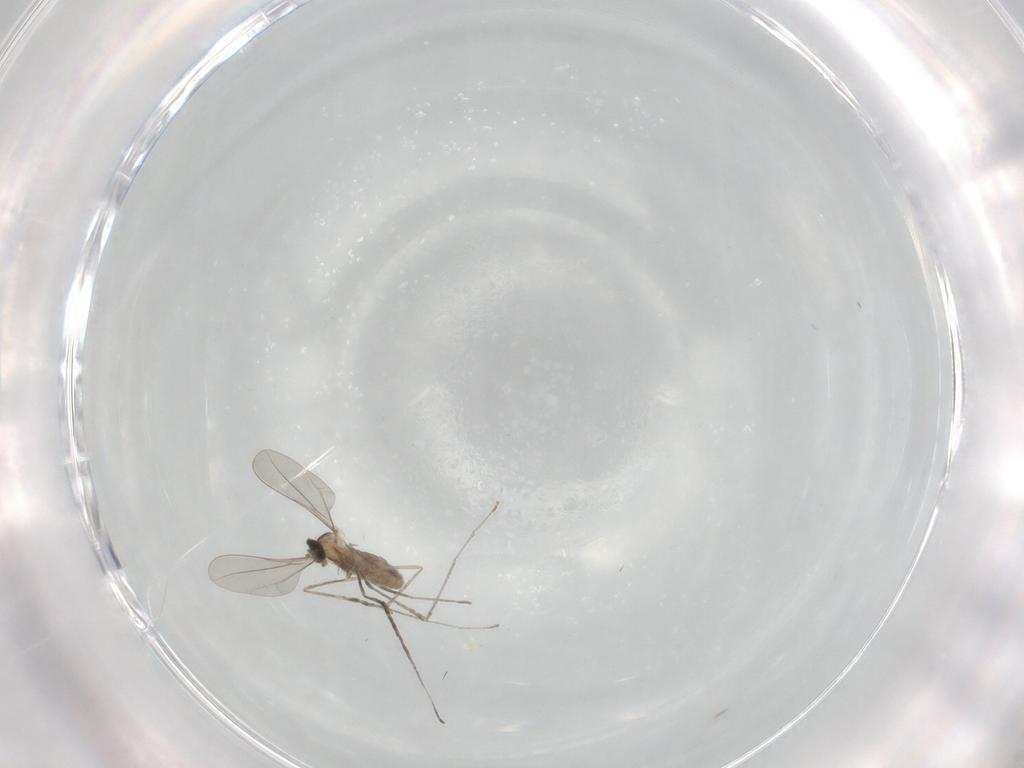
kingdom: Animalia
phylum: Arthropoda
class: Insecta
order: Diptera
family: Cecidomyiidae
